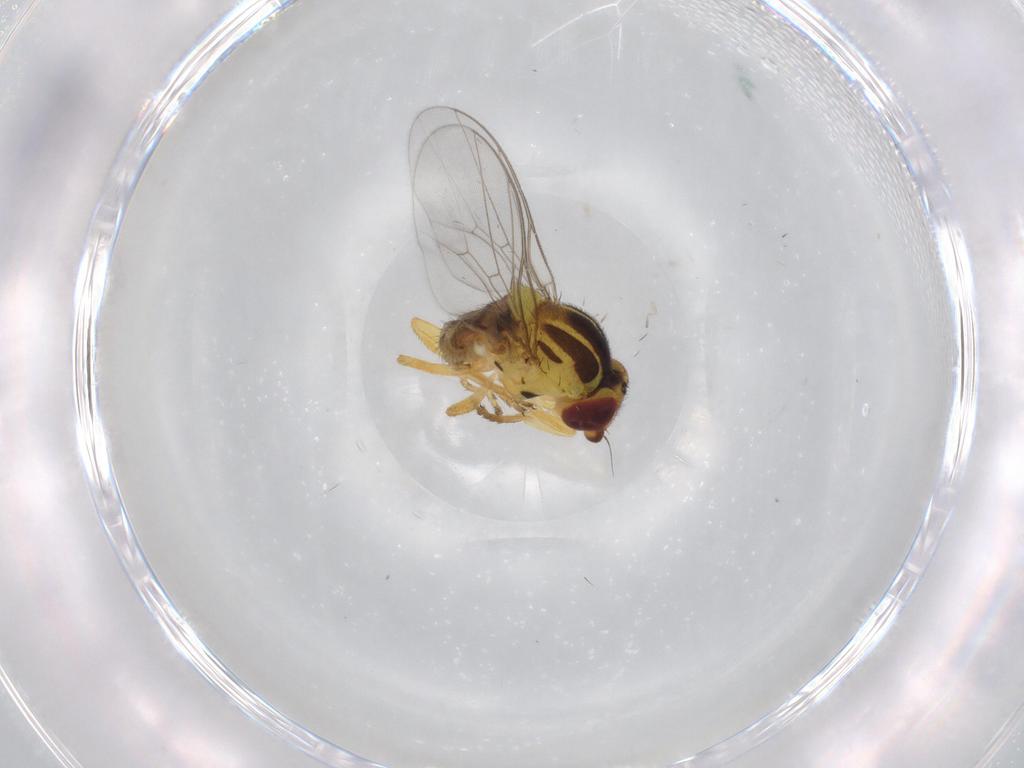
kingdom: Animalia
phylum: Arthropoda
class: Insecta
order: Diptera
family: Chloropidae
